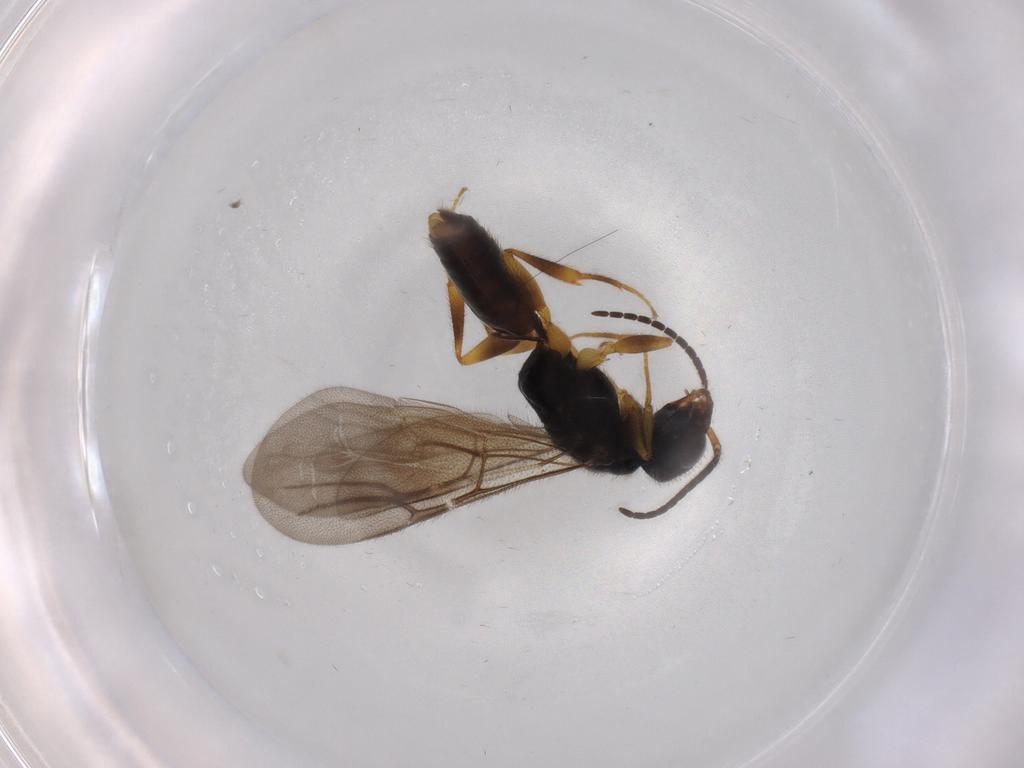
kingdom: Animalia
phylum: Arthropoda
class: Insecta
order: Hymenoptera
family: Bethylidae
